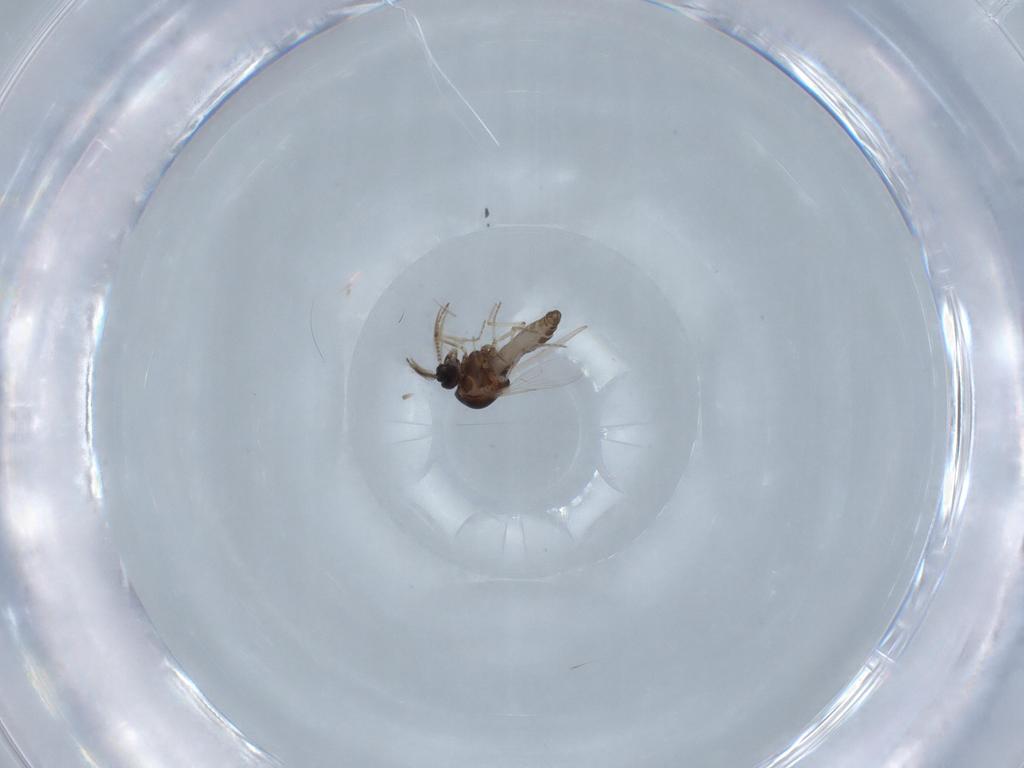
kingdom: Animalia
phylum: Arthropoda
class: Insecta
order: Diptera
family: Ceratopogonidae
